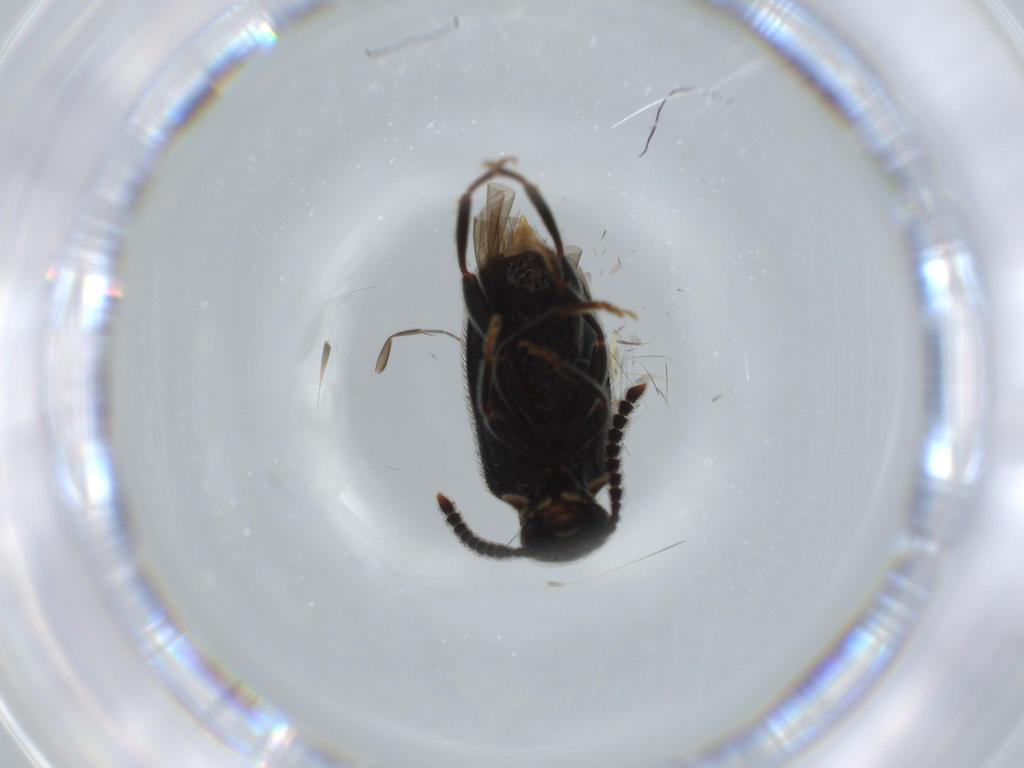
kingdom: Animalia
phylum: Arthropoda
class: Insecta
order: Coleoptera
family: Aderidae
